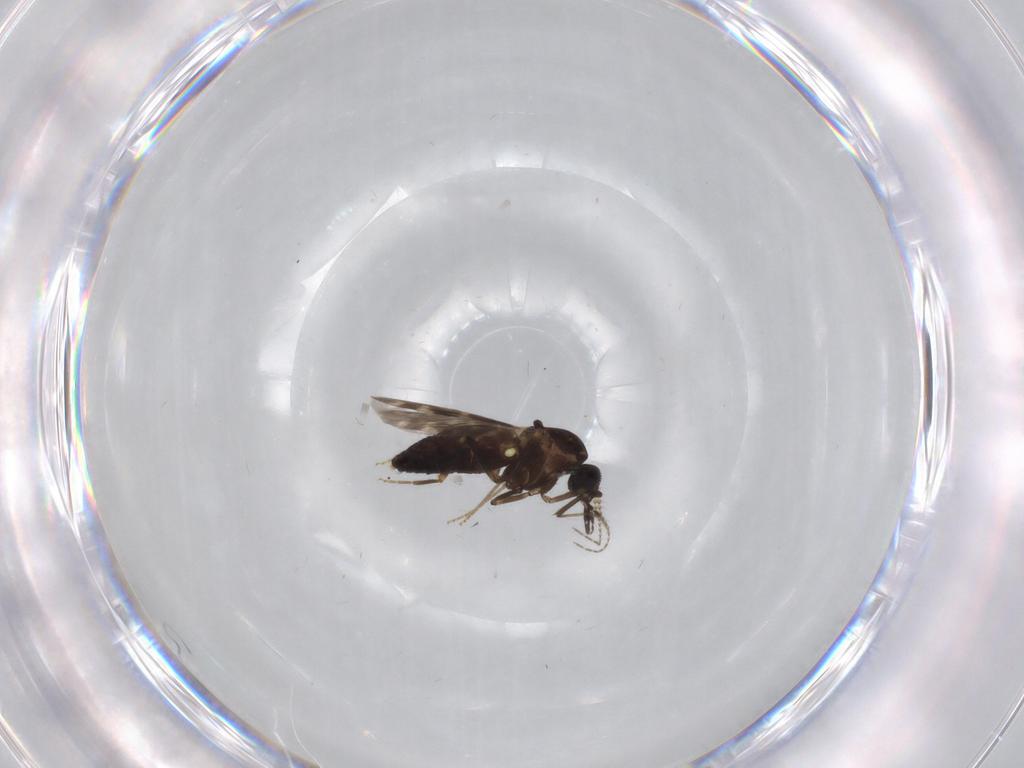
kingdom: Animalia
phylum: Arthropoda
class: Insecta
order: Diptera
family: Ceratopogonidae
